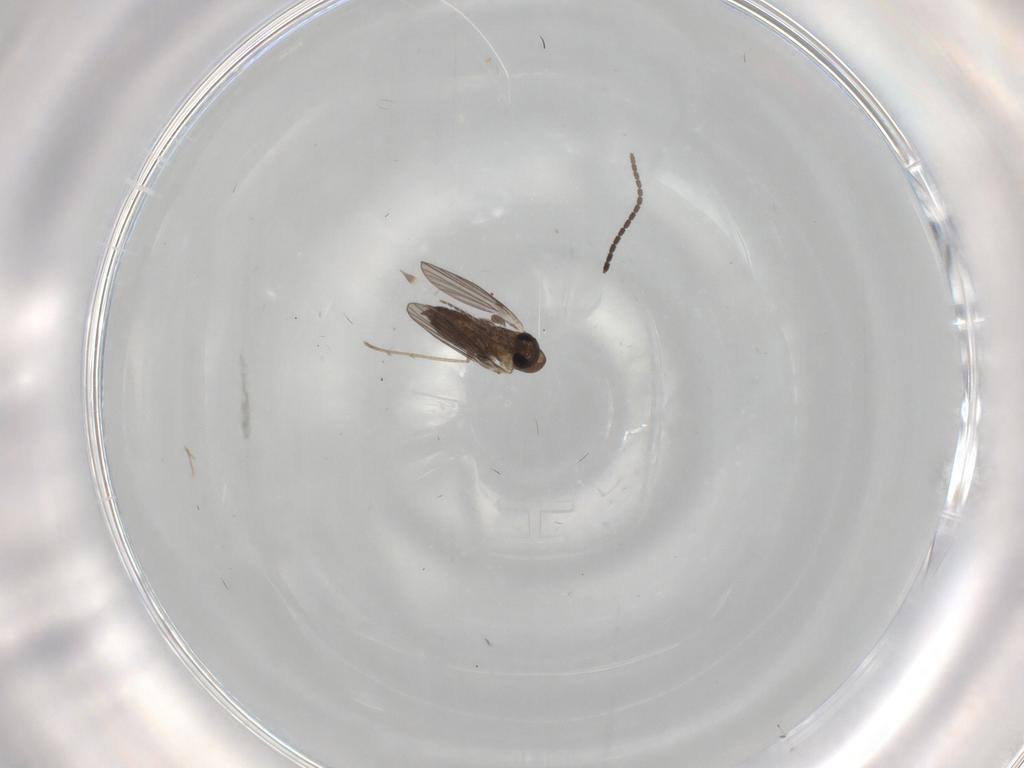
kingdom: Animalia
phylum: Arthropoda
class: Insecta
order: Diptera
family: Sciaridae
